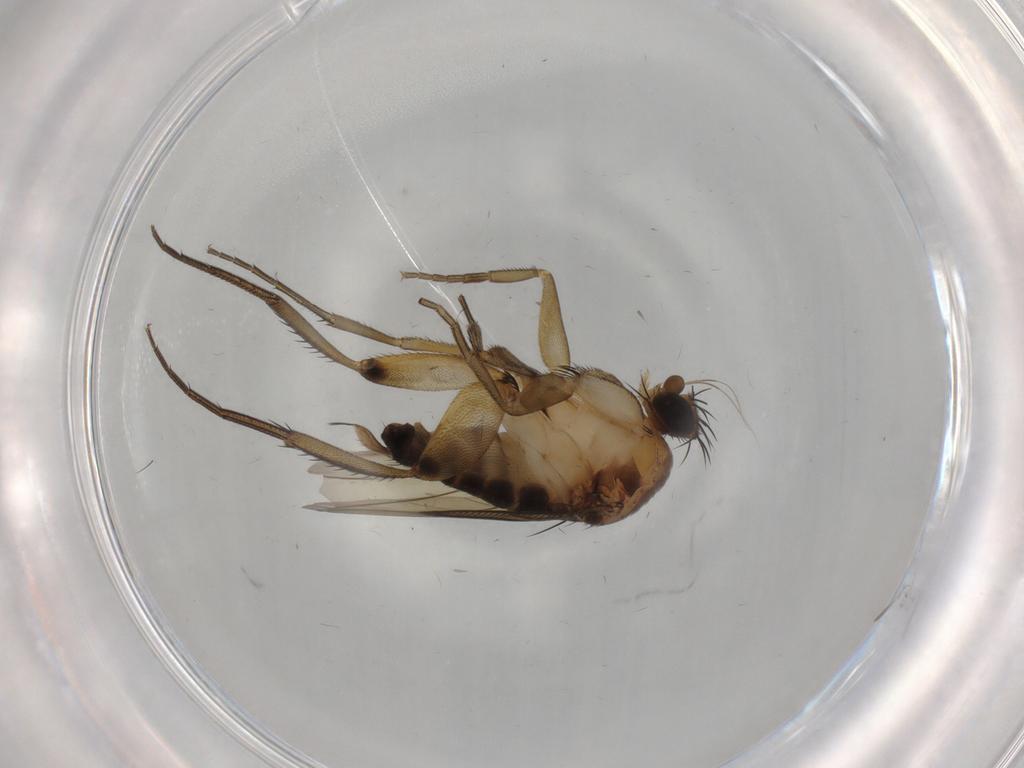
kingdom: Animalia
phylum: Arthropoda
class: Insecta
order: Diptera
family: Phoridae
